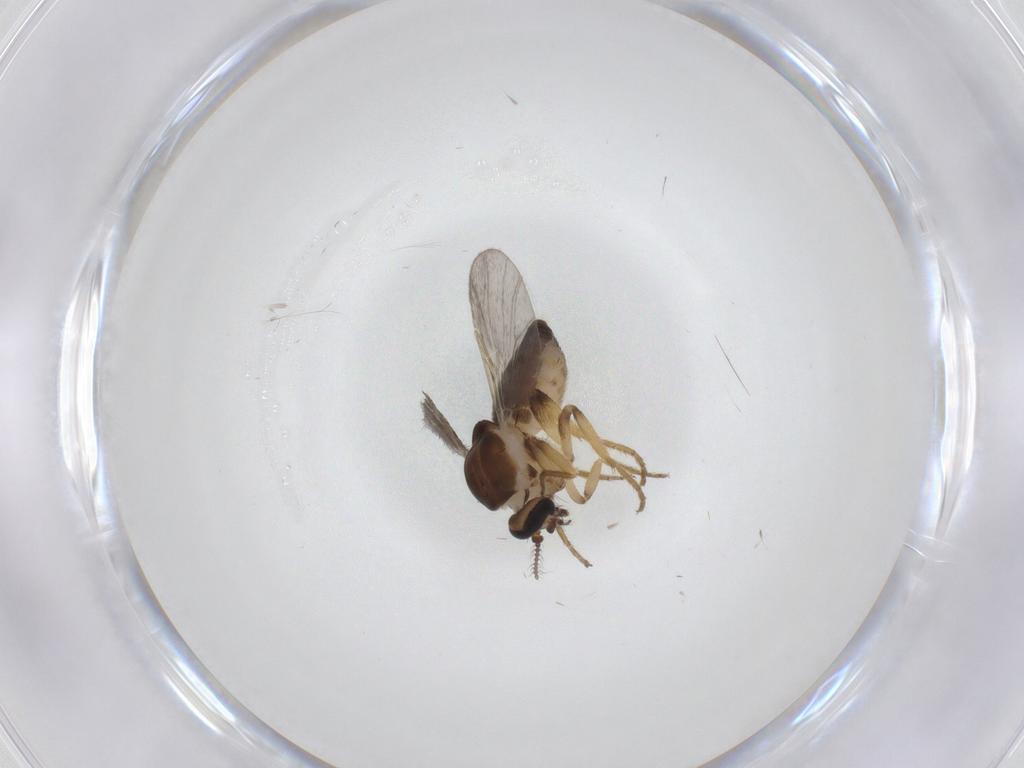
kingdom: Animalia
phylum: Arthropoda
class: Insecta
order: Diptera
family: Ceratopogonidae
